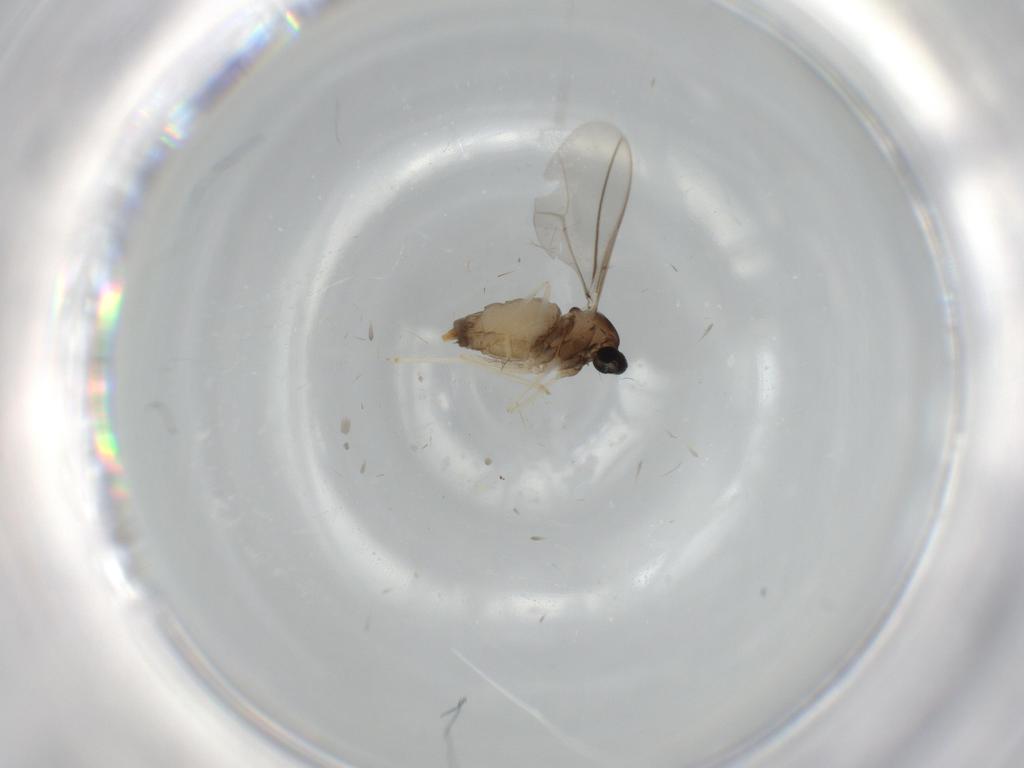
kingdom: Animalia
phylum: Arthropoda
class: Insecta
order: Diptera
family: Cecidomyiidae
